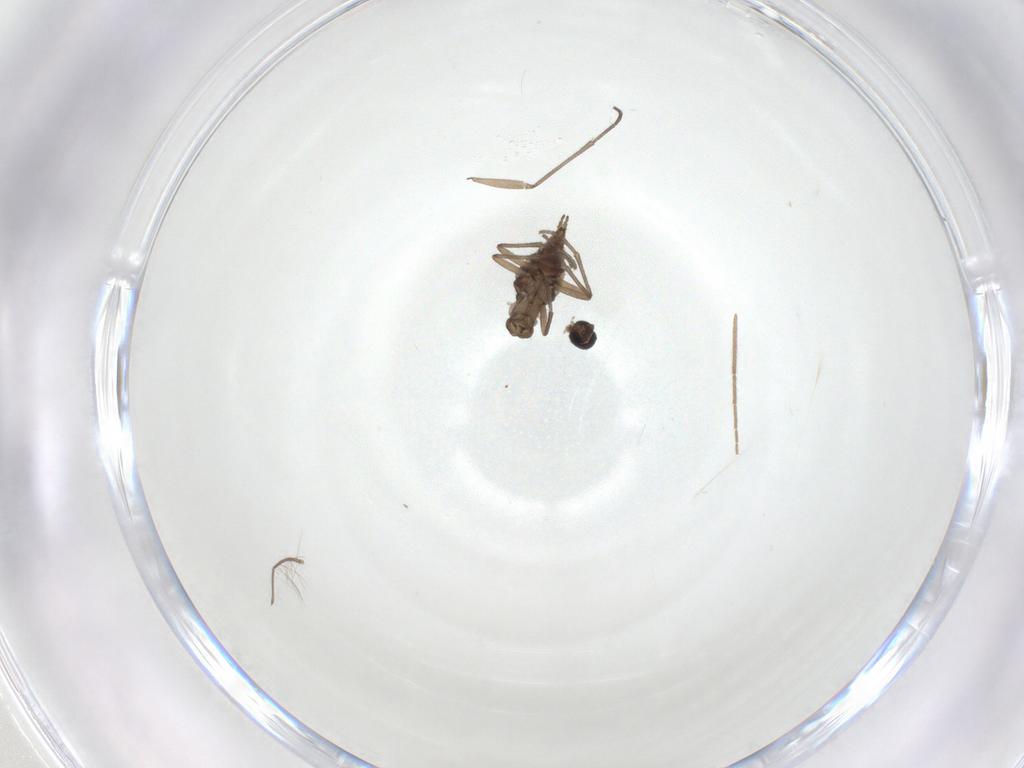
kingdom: Animalia
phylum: Arthropoda
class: Insecta
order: Diptera
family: Sciaridae
